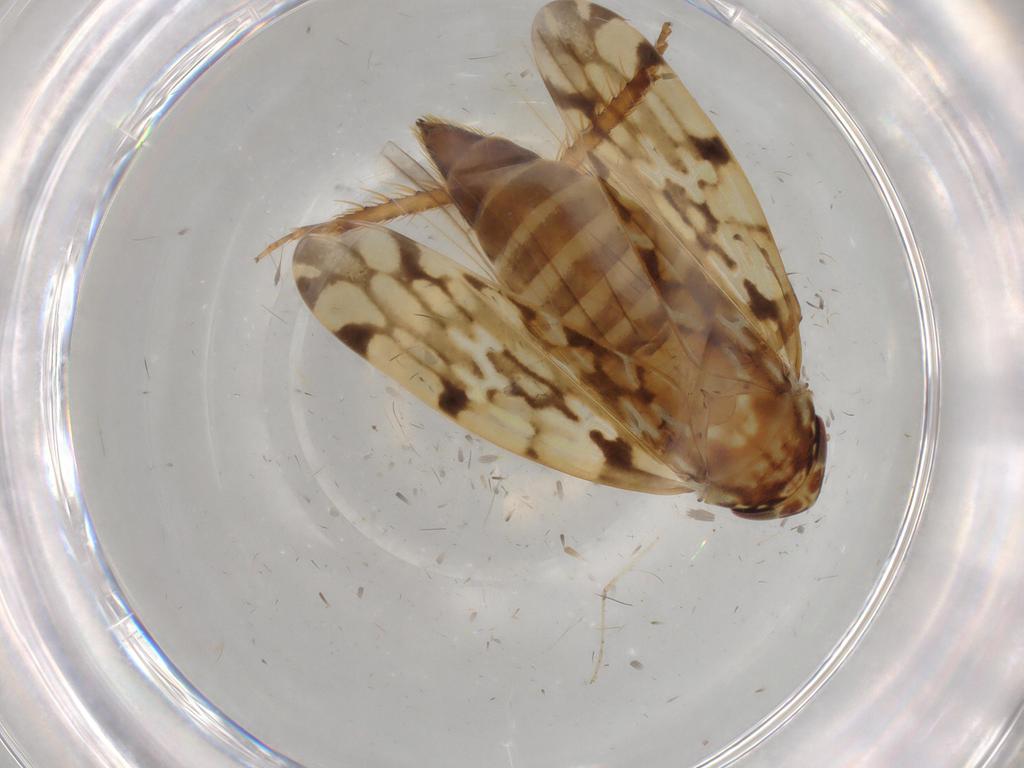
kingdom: Animalia
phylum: Arthropoda
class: Insecta
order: Hemiptera
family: Cicadellidae
